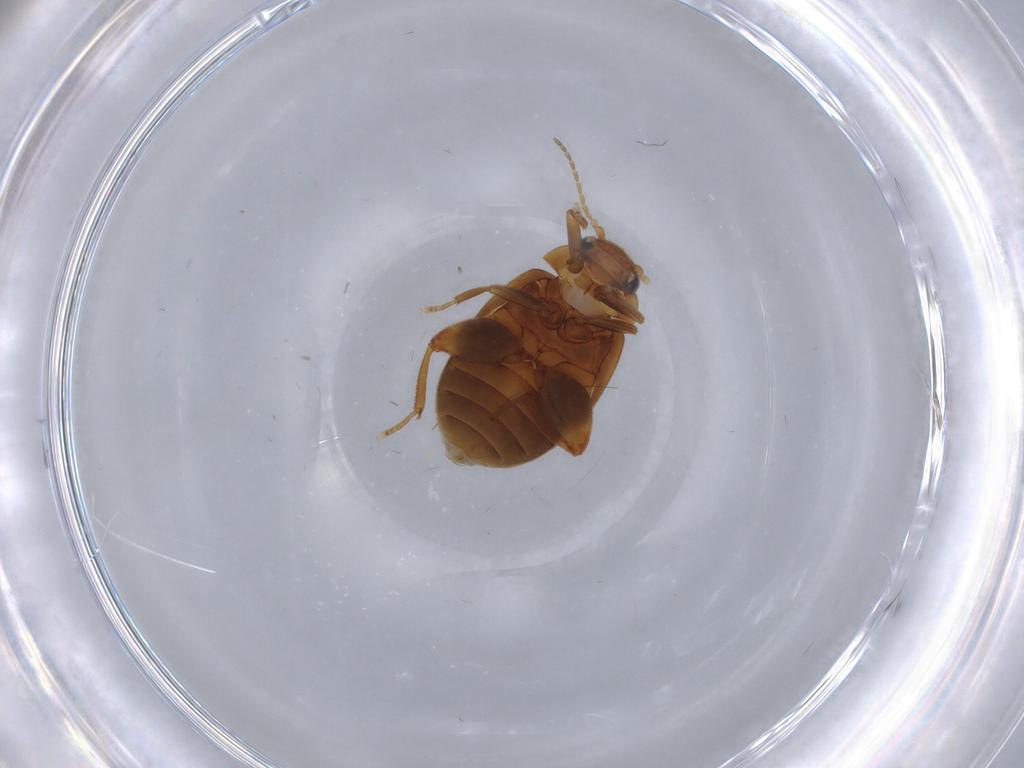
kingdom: Animalia
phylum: Arthropoda
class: Insecta
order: Coleoptera
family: Scirtidae
